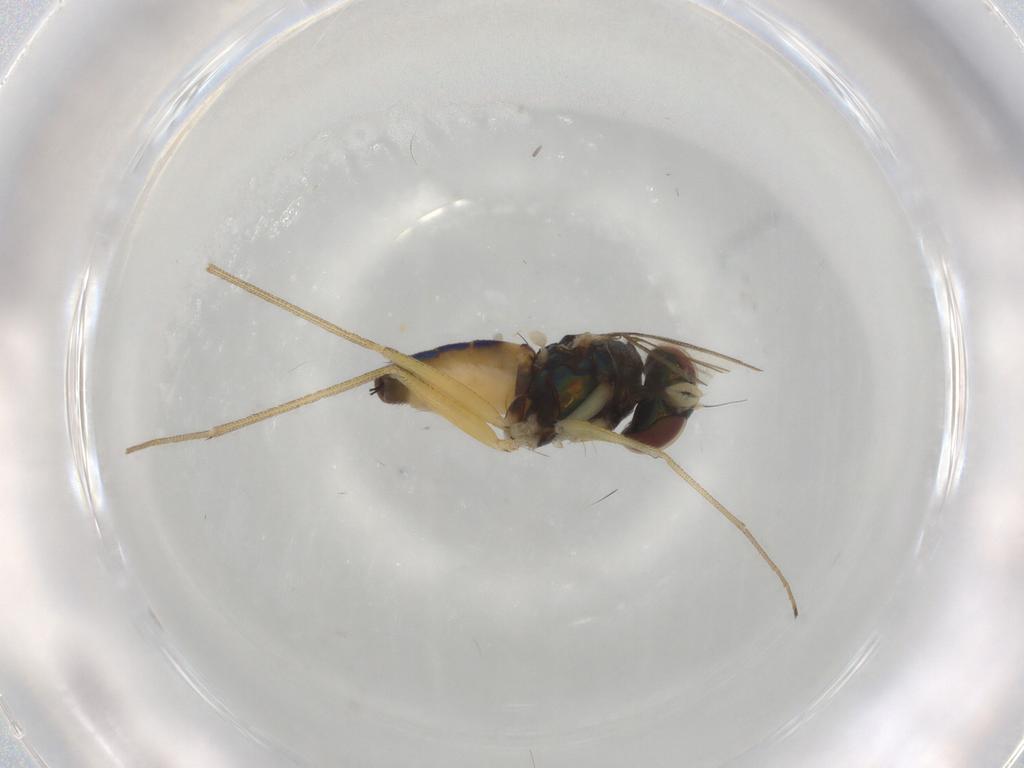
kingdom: Animalia
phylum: Arthropoda
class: Insecta
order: Diptera
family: Dolichopodidae
